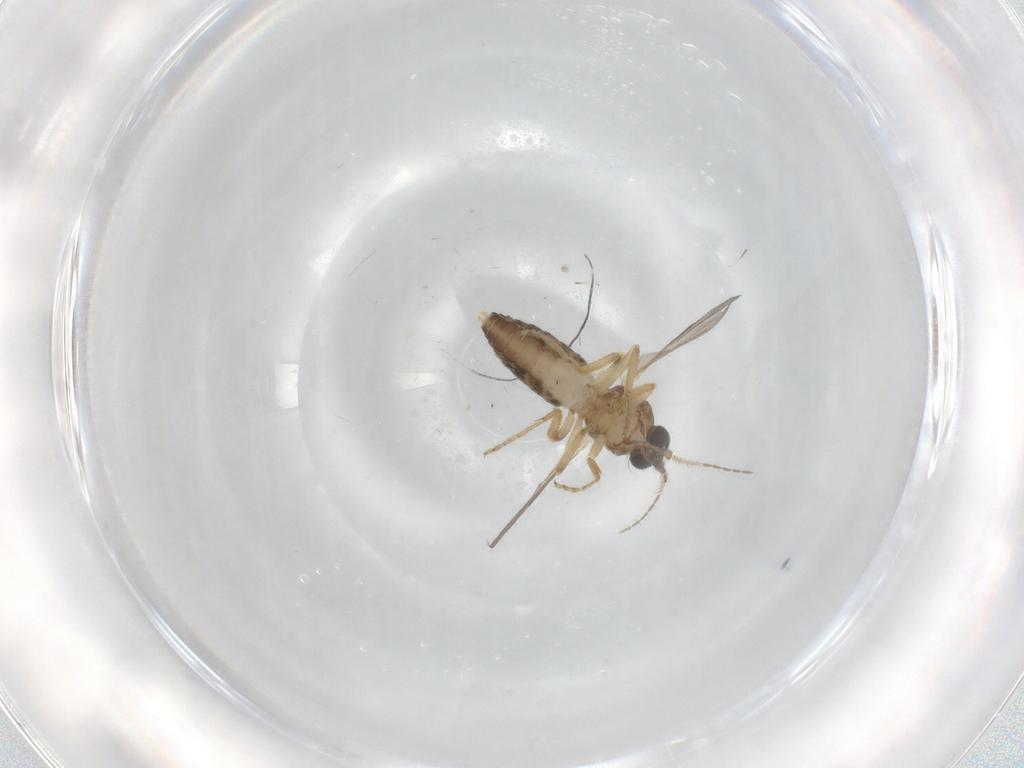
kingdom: Animalia
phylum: Arthropoda
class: Insecta
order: Diptera
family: Ceratopogonidae
